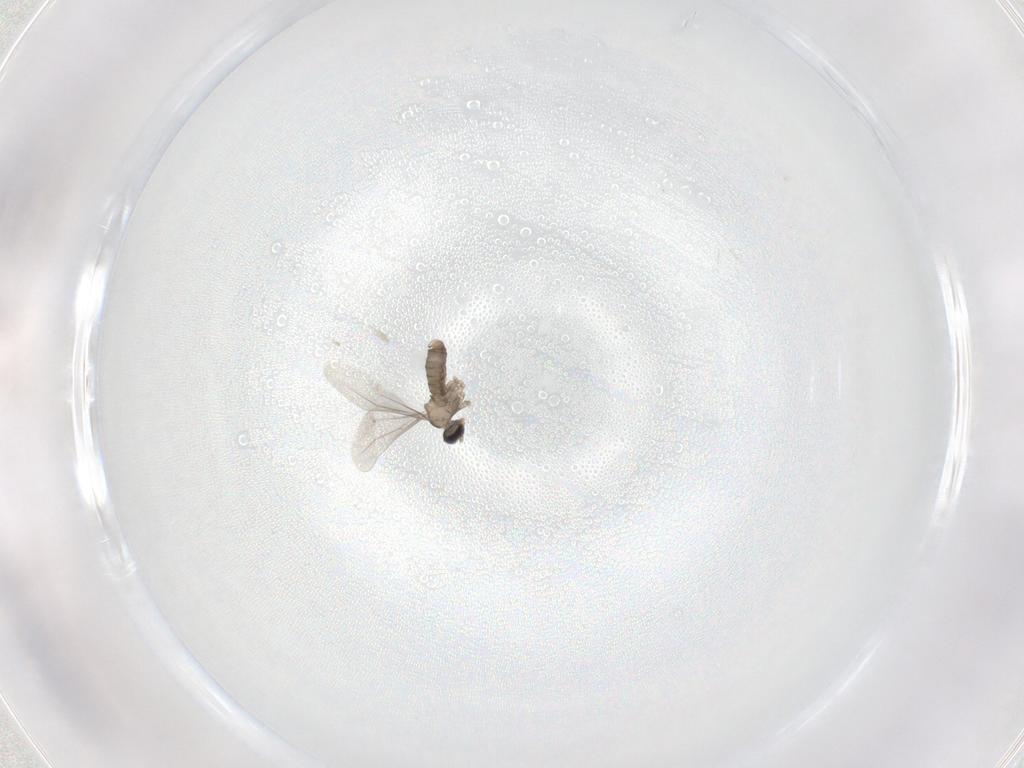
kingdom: Animalia
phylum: Arthropoda
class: Insecta
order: Diptera
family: Cecidomyiidae
